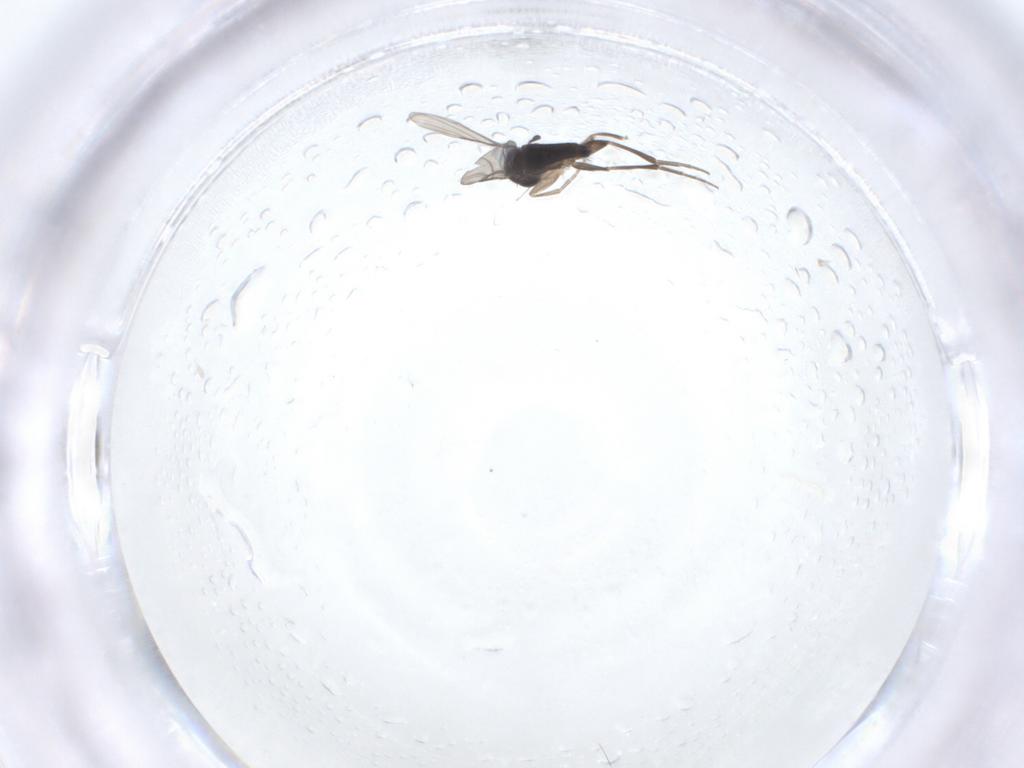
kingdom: Animalia
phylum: Arthropoda
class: Insecta
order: Diptera
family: Phoridae
